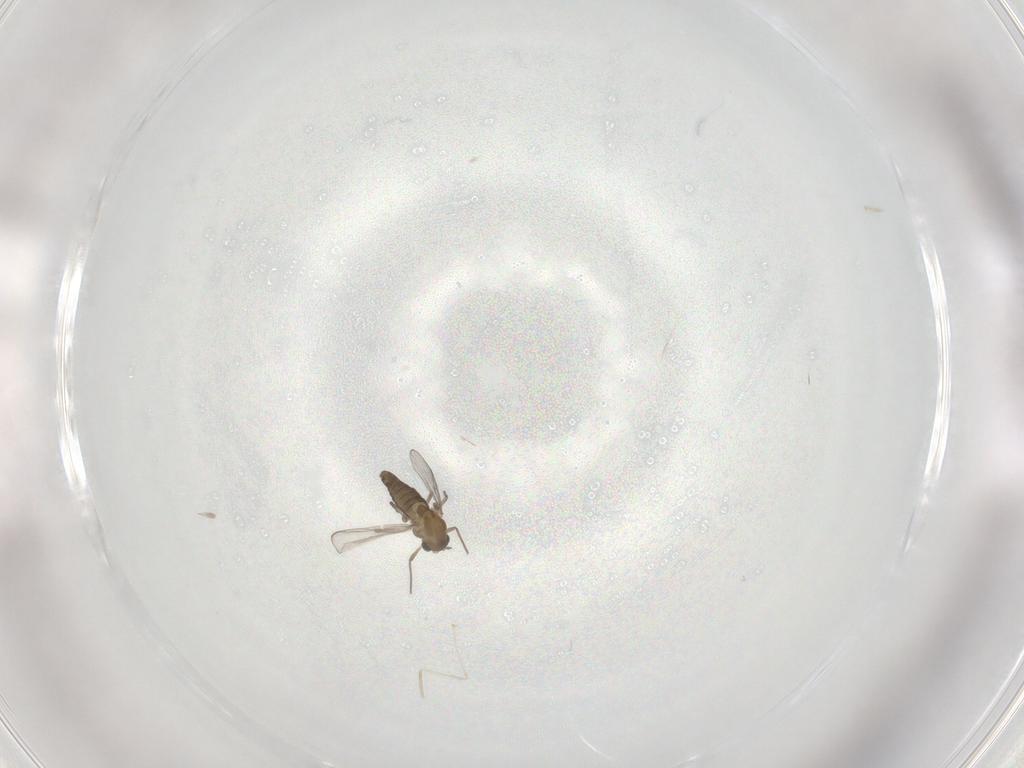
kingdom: Animalia
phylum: Arthropoda
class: Insecta
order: Diptera
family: Chironomidae
